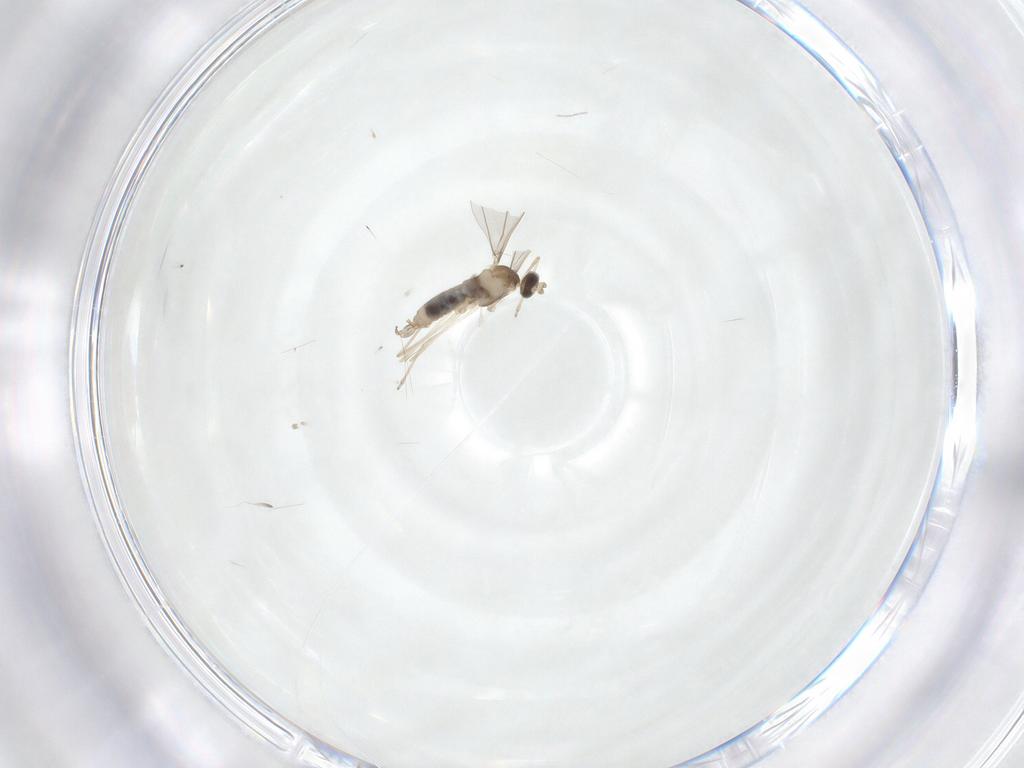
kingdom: Animalia
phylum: Arthropoda
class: Insecta
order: Diptera
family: Cecidomyiidae
